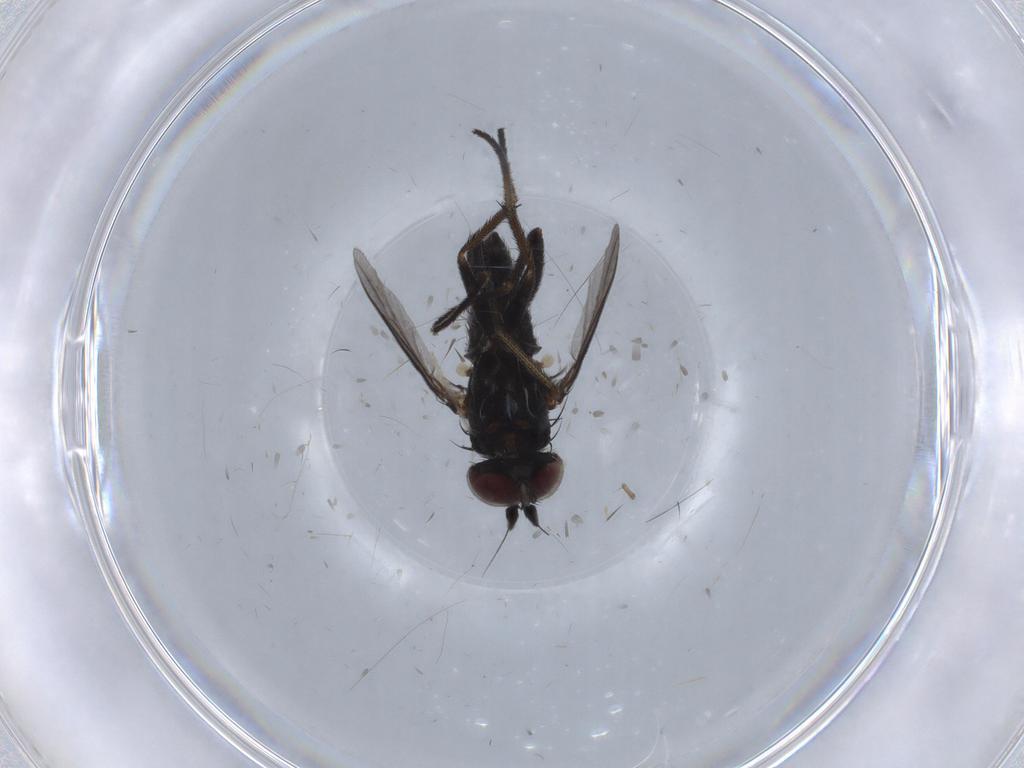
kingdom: Animalia
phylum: Arthropoda
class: Insecta
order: Diptera
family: Dolichopodidae
